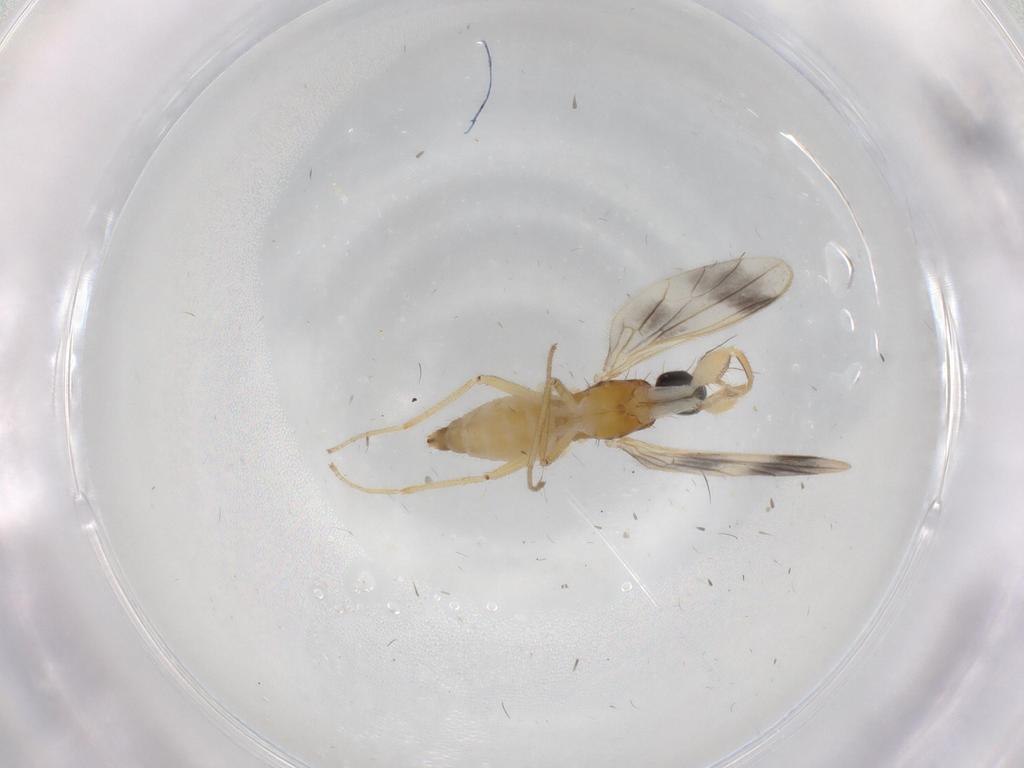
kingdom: Animalia
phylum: Arthropoda
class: Insecta
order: Diptera
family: Empididae
